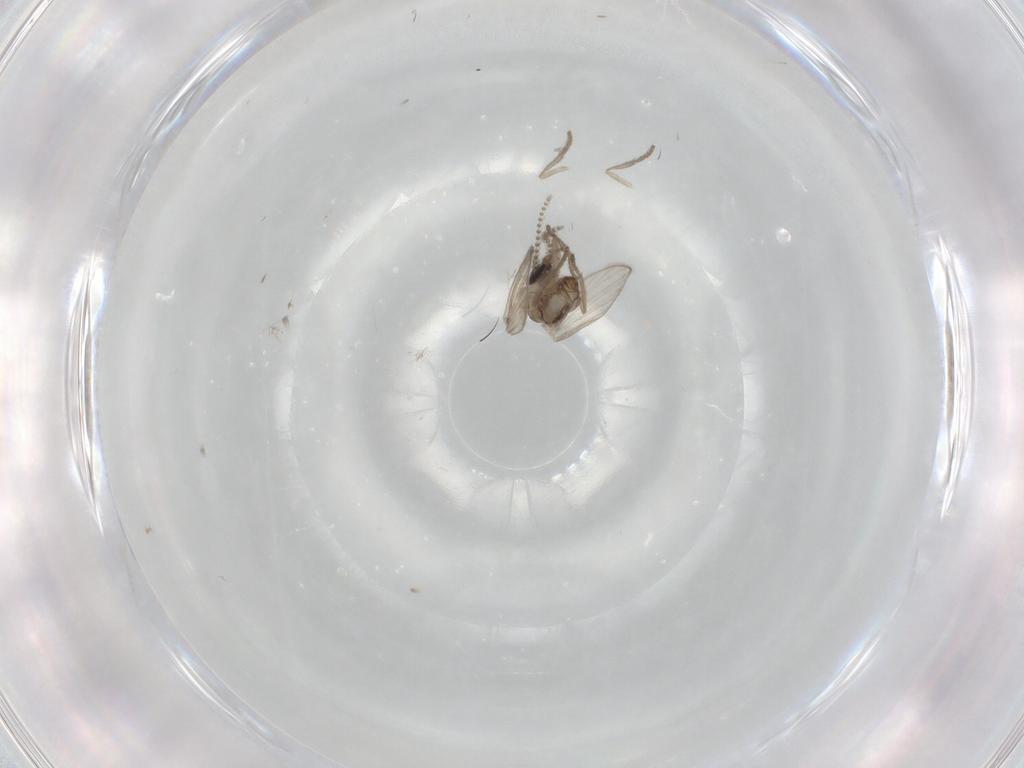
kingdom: Animalia
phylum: Arthropoda
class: Insecta
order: Diptera
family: Psychodidae
